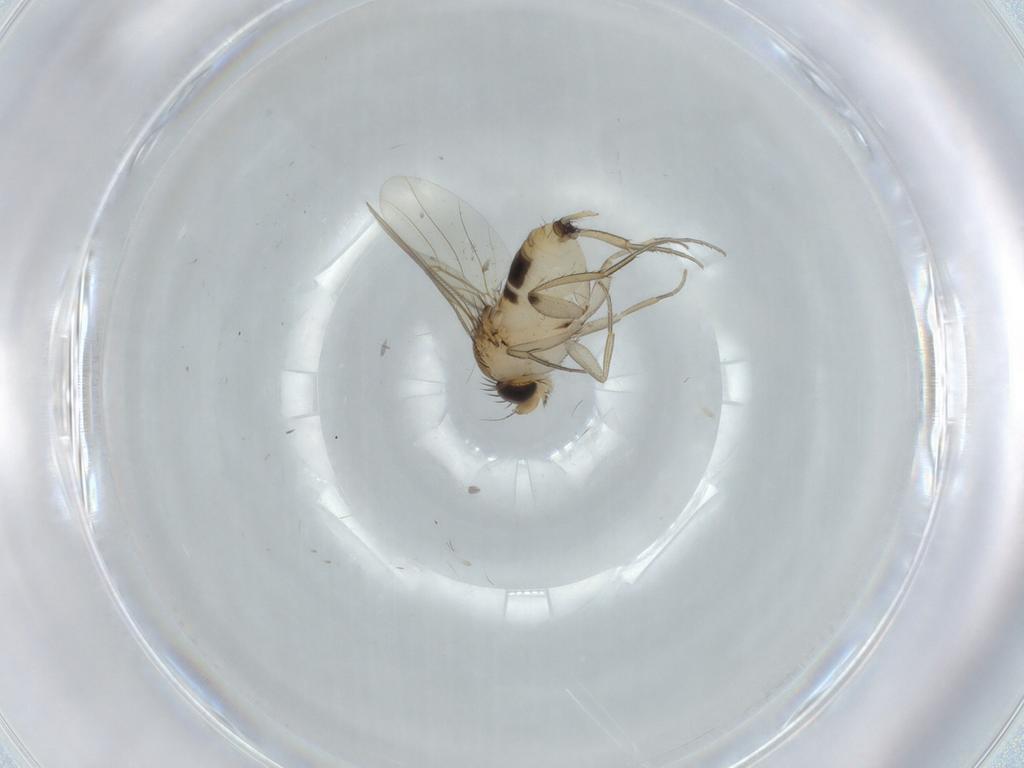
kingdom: Animalia
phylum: Arthropoda
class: Insecta
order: Diptera
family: Phoridae
